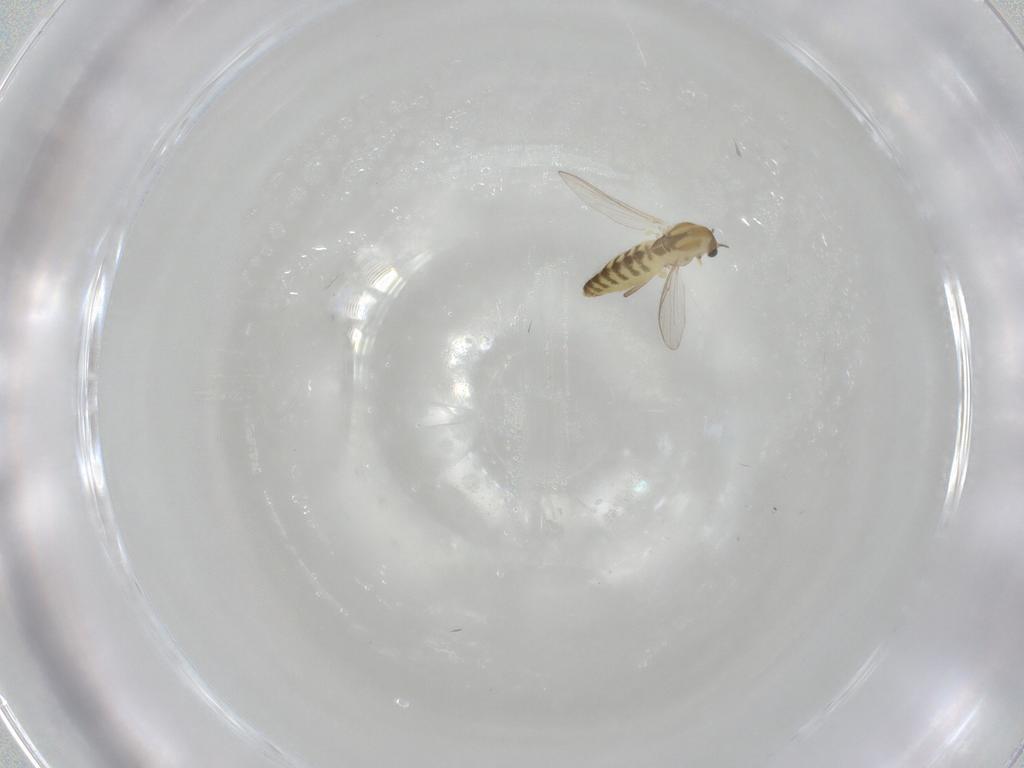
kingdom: Animalia
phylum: Arthropoda
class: Insecta
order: Diptera
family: Chironomidae
